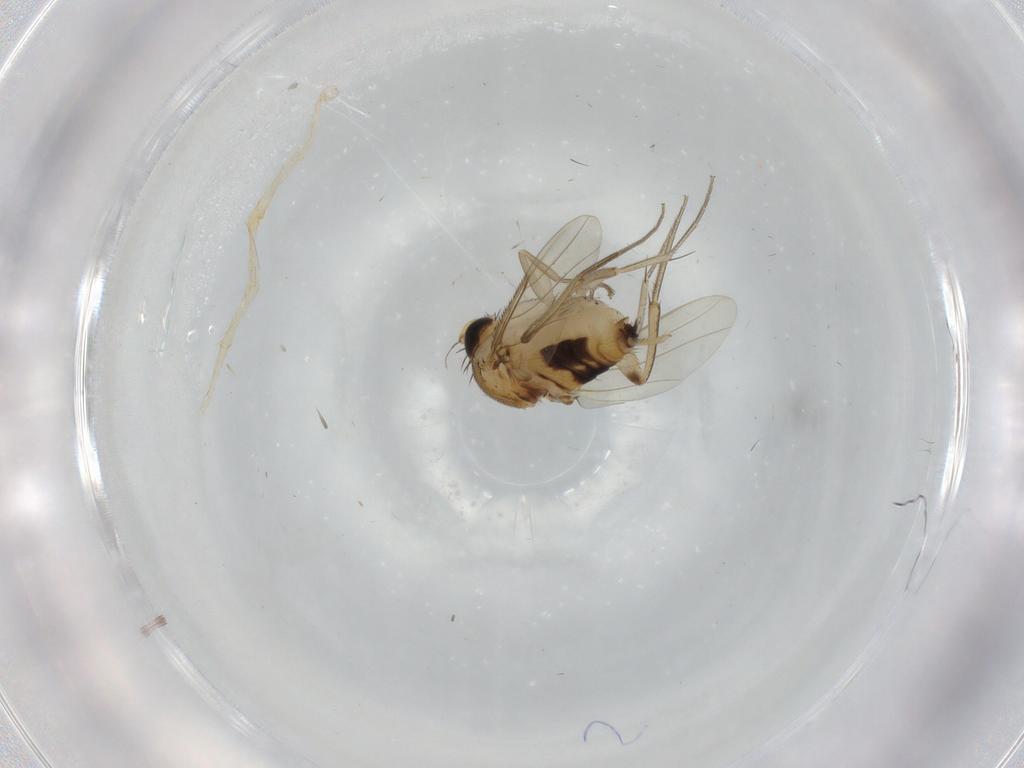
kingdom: Animalia
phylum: Arthropoda
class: Insecta
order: Diptera
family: Phoridae
